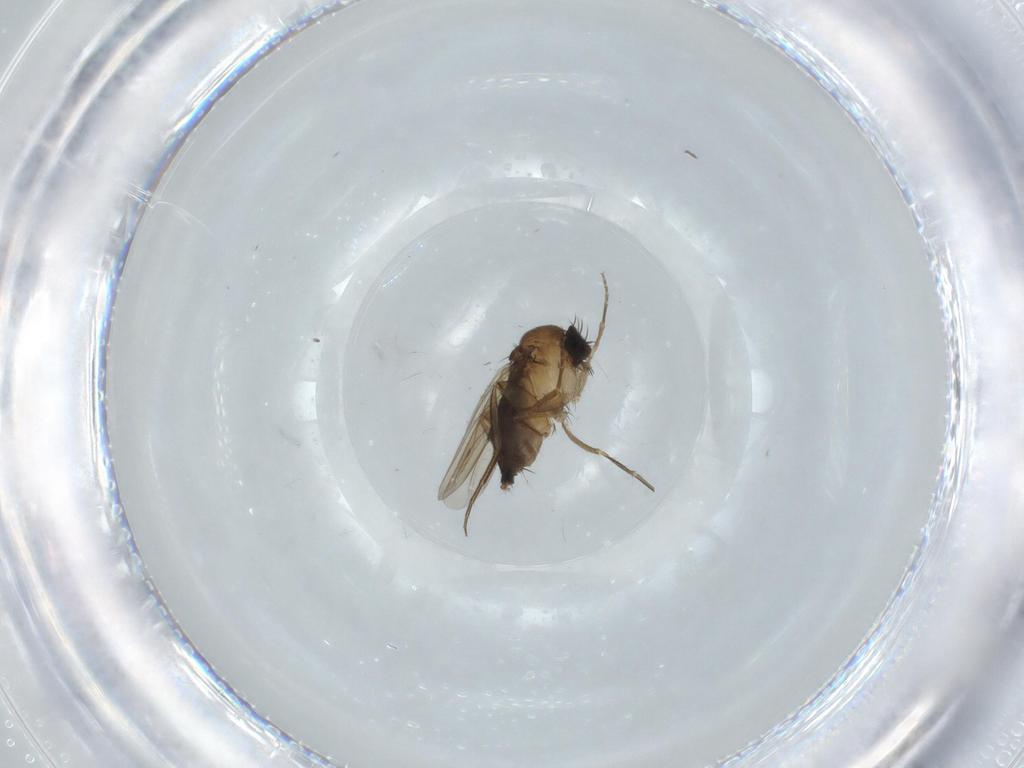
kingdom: Animalia
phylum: Arthropoda
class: Insecta
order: Diptera
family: Phoridae
